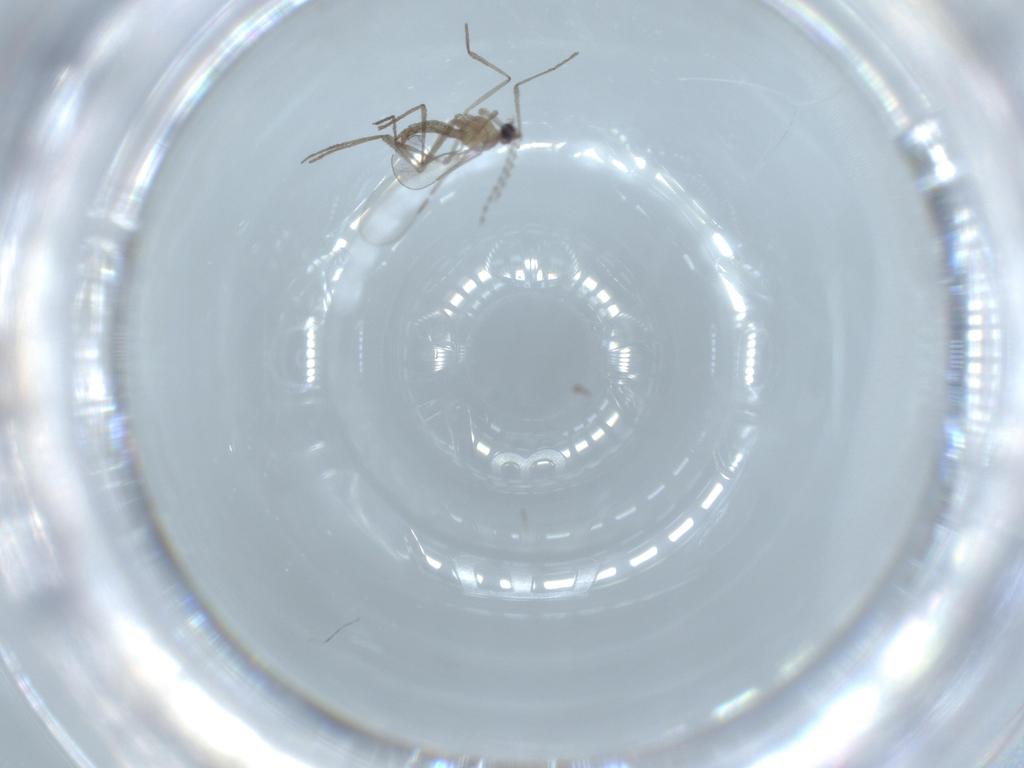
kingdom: Animalia
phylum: Arthropoda
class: Insecta
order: Diptera
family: Cecidomyiidae
